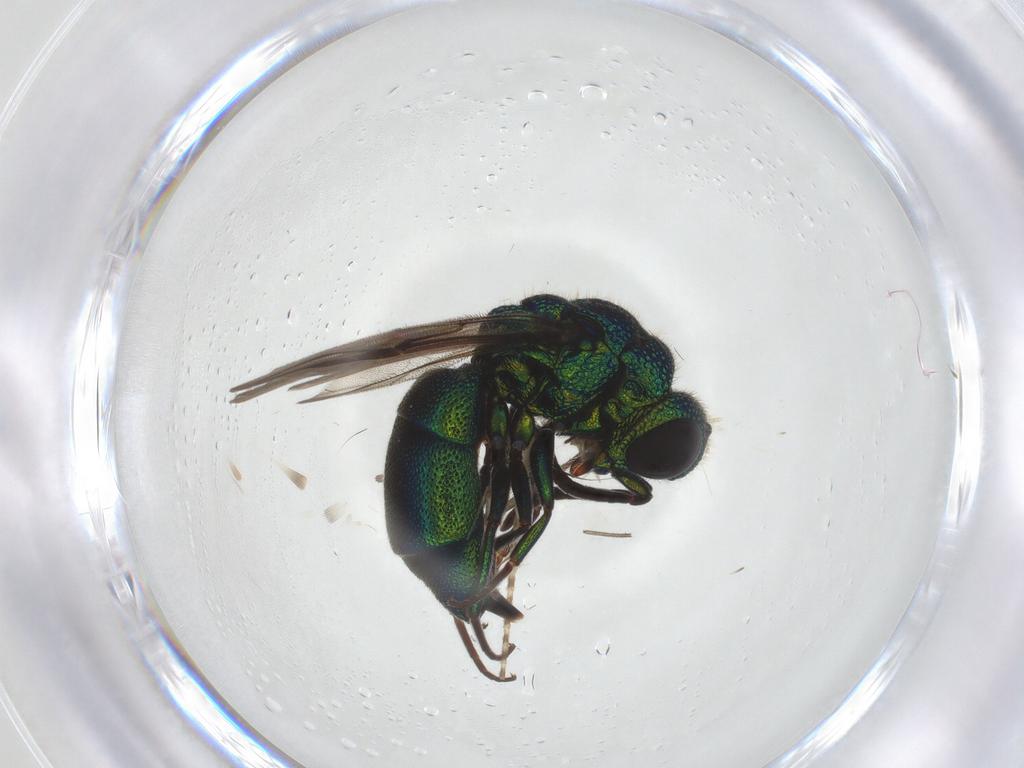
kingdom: Animalia
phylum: Arthropoda
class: Insecta
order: Hymenoptera
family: Chrysididae
